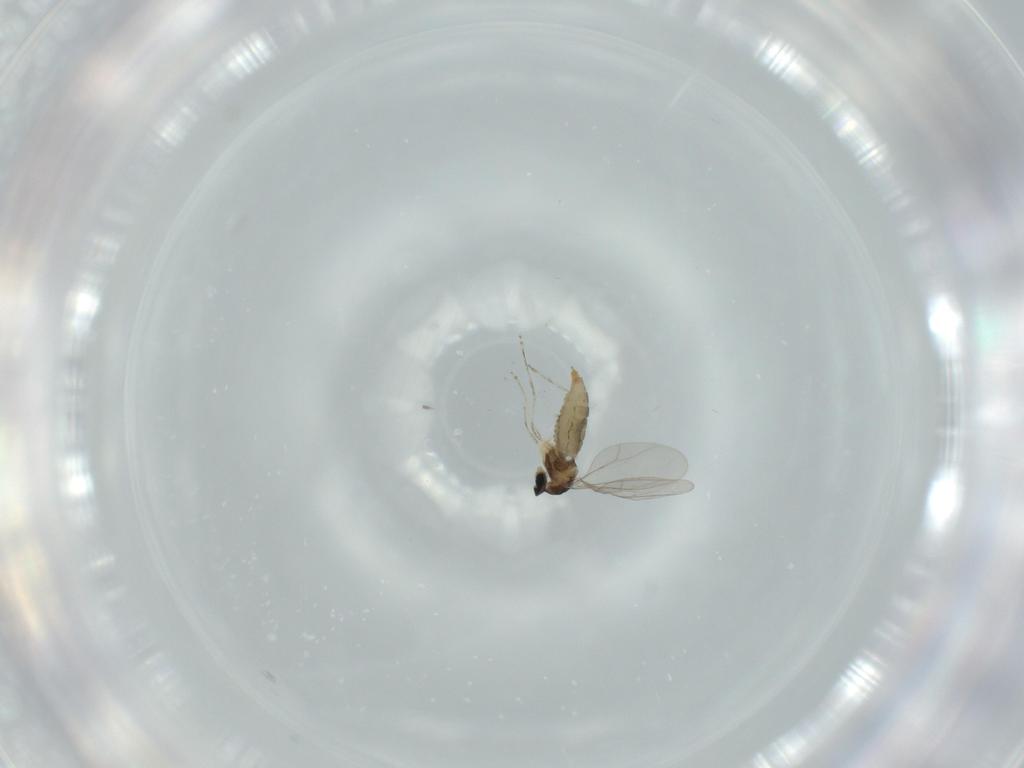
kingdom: Animalia
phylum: Arthropoda
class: Insecta
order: Diptera
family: Cecidomyiidae
